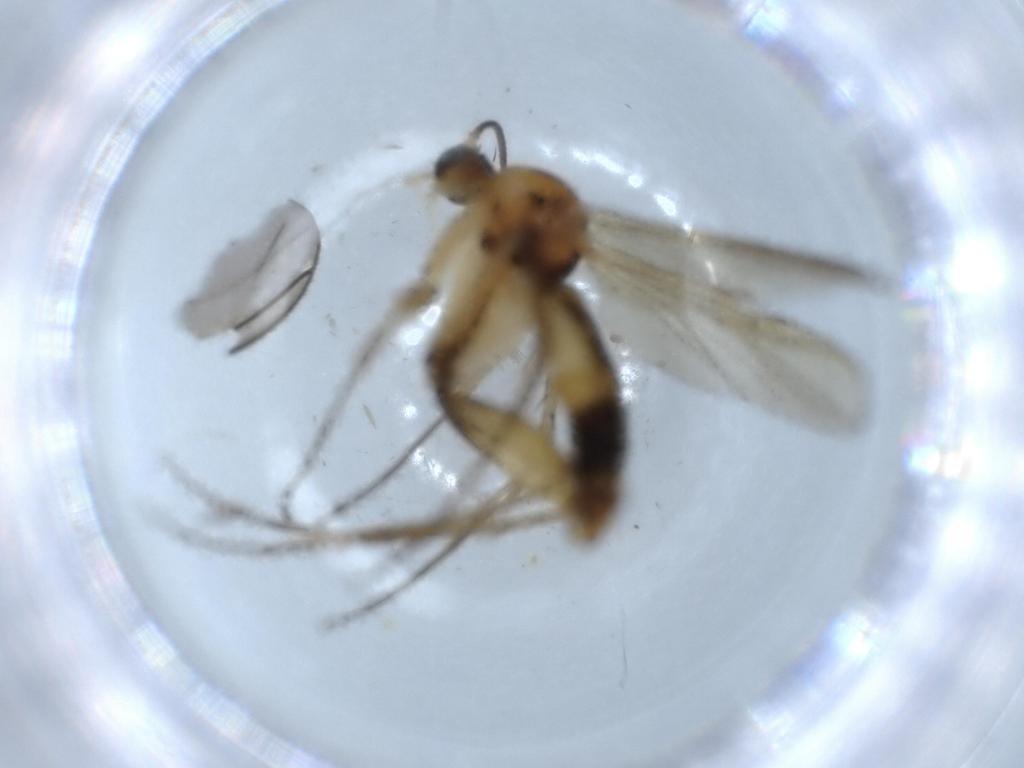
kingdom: Animalia
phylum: Arthropoda
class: Insecta
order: Diptera
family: Mycetophilidae
